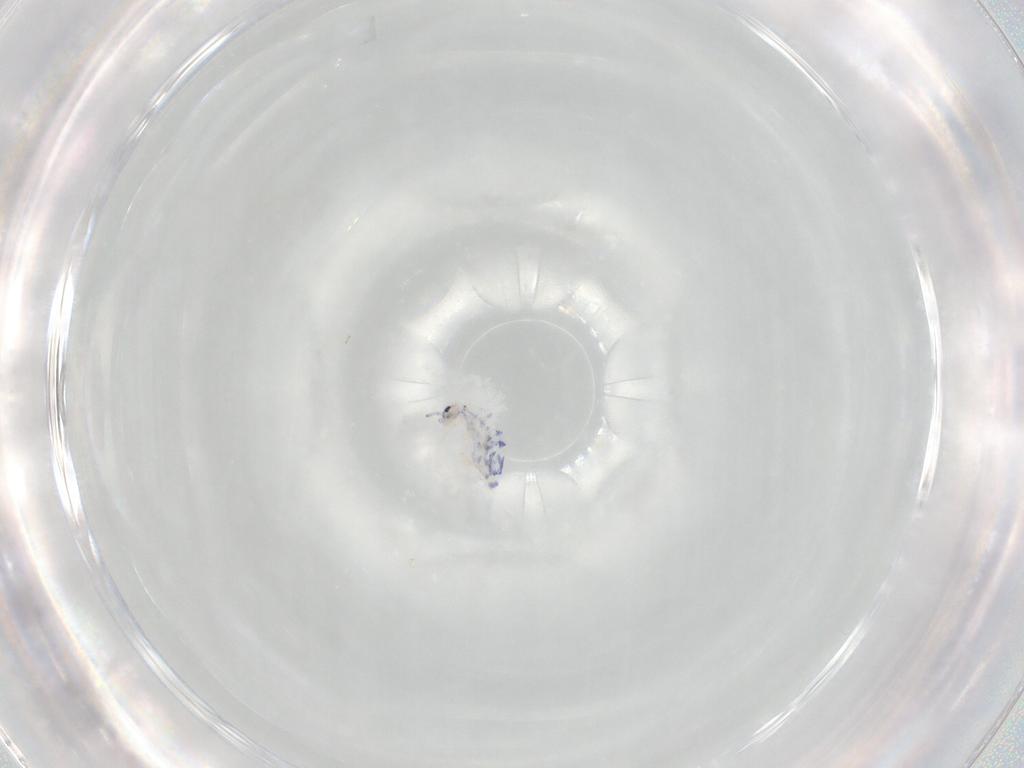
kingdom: Animalia
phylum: Arthropoda
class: Collembola
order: Entomobryomorpha
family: Entomobryidae
